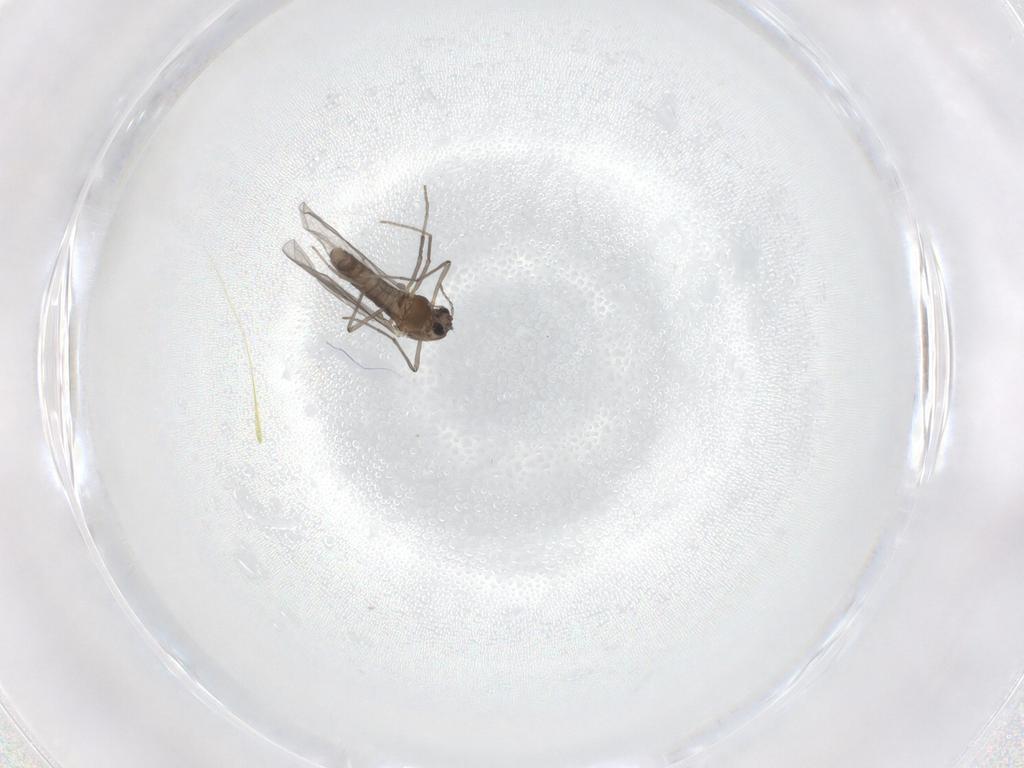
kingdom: Animalia
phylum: Arthropoda
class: Insecta
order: Diptera
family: Chironomidae
